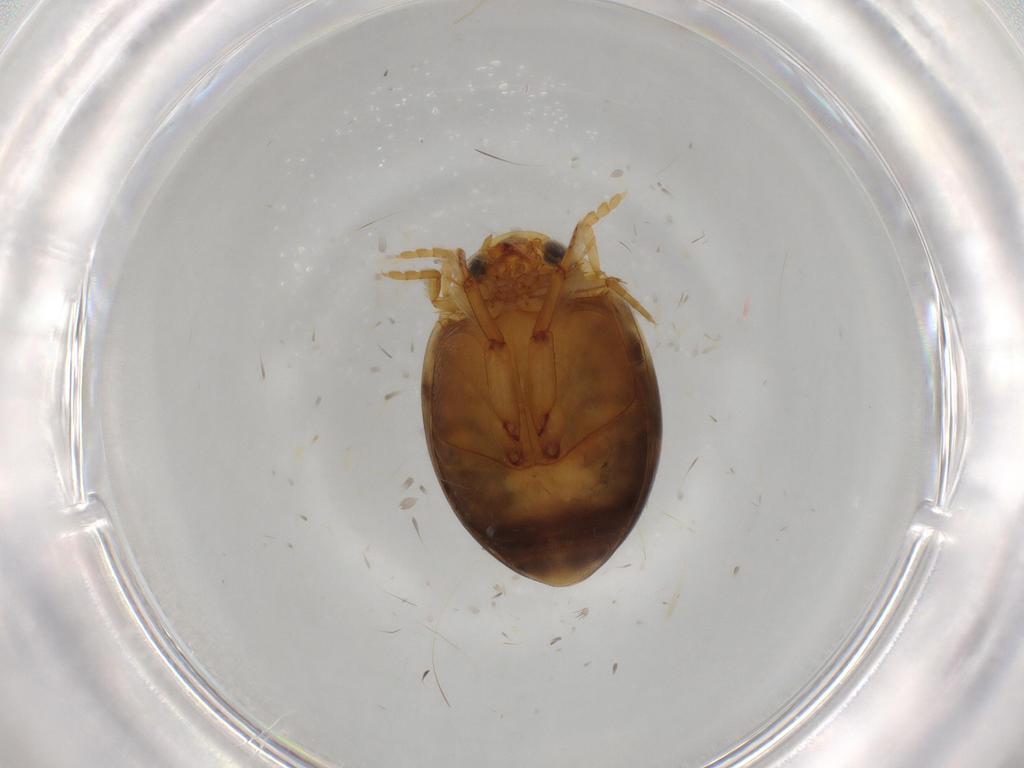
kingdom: Animalia
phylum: Arthropoda
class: Insecta
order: Coleoptera
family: Dytiscidae
